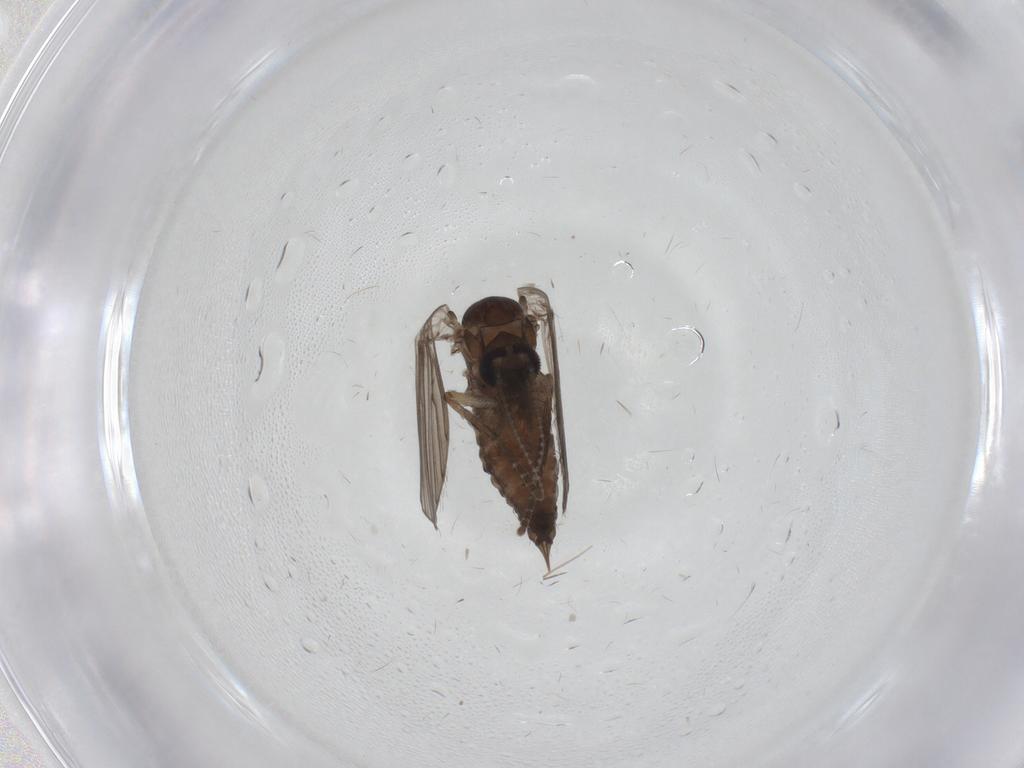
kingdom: Animalia
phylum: Arthropoda
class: Insecta
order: Diptera
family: Psychodidae
